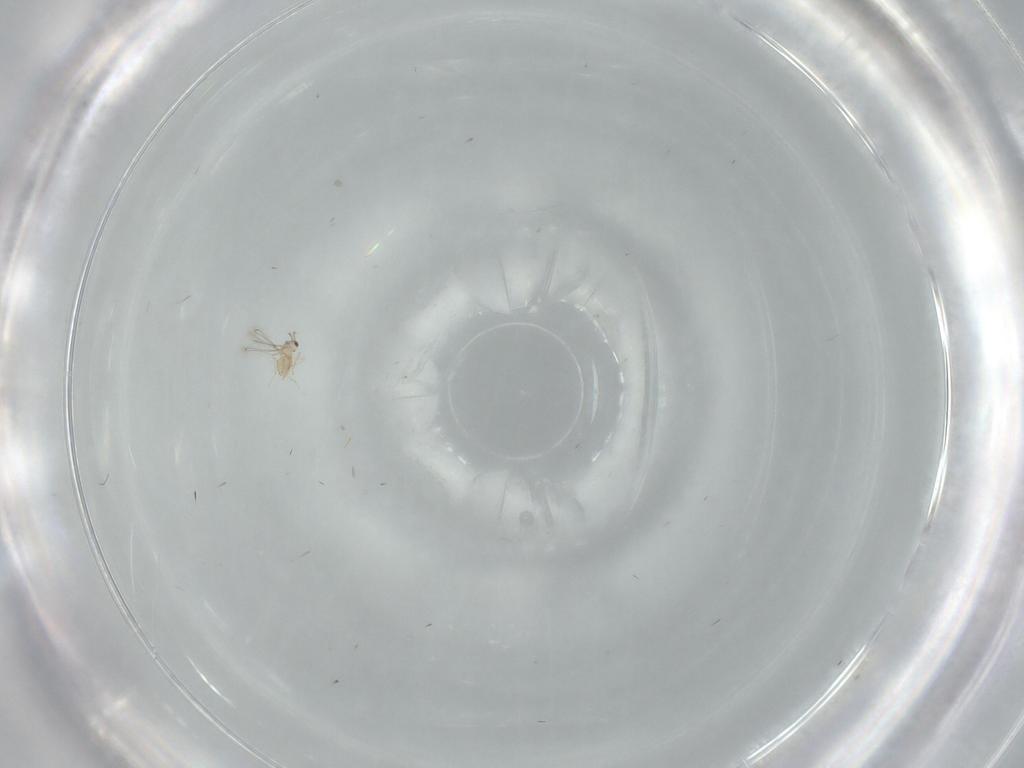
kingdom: Animalia
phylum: Arthropoda
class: Insecta
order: Hymenoptera
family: Mymaridae
